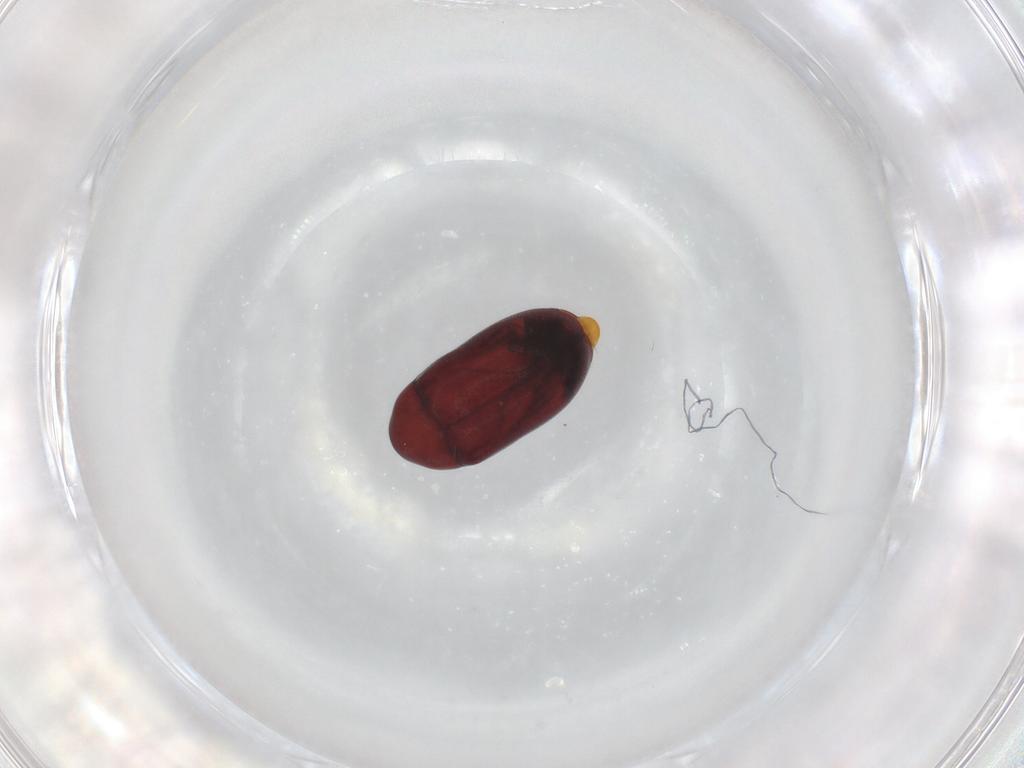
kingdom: Animalia
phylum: Arthropoda
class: Insecta
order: Coleoptera
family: Ptinidae
